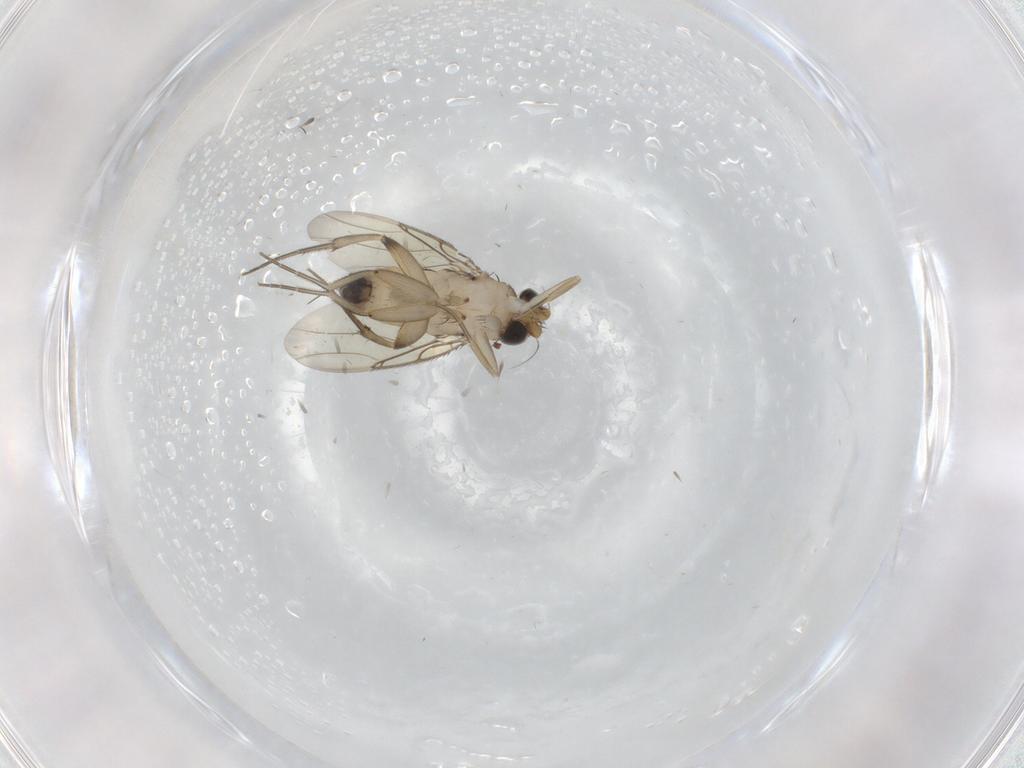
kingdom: Animalia
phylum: Arthropoda
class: Insecta
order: Diptera
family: Phoridae
